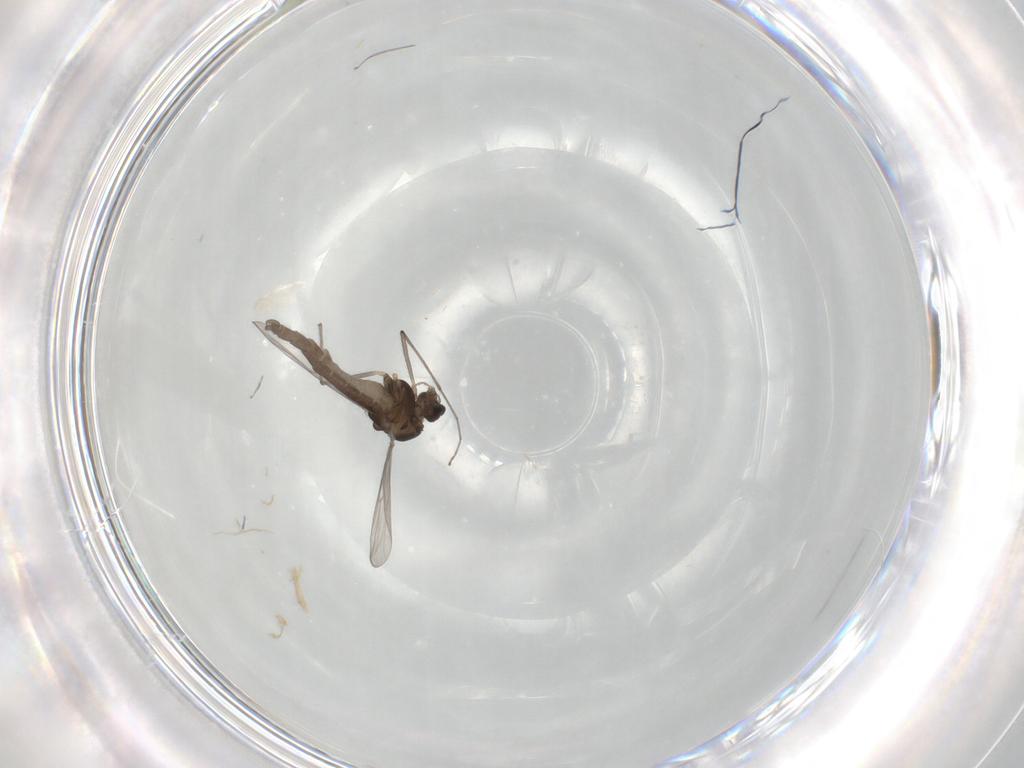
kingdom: Animalia
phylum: Arthropoda
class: Insecta
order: Diptera
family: Chironomidae
